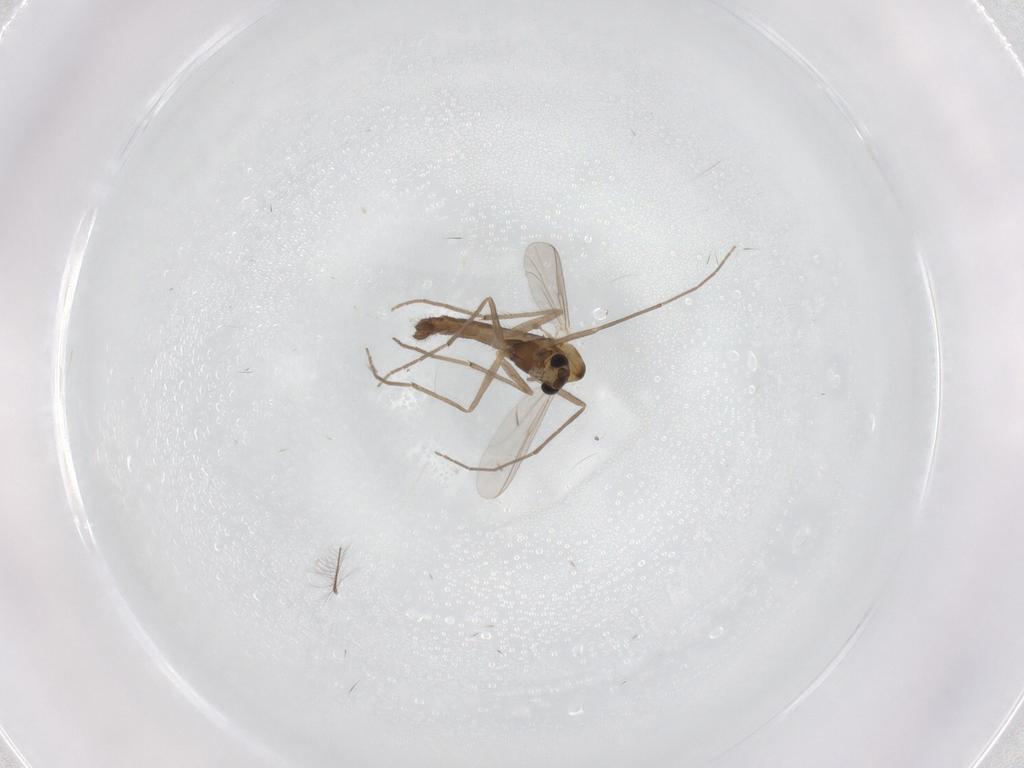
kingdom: Animalia
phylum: Arthropoda
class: Insecta
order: Diptera
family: Chironomidae
